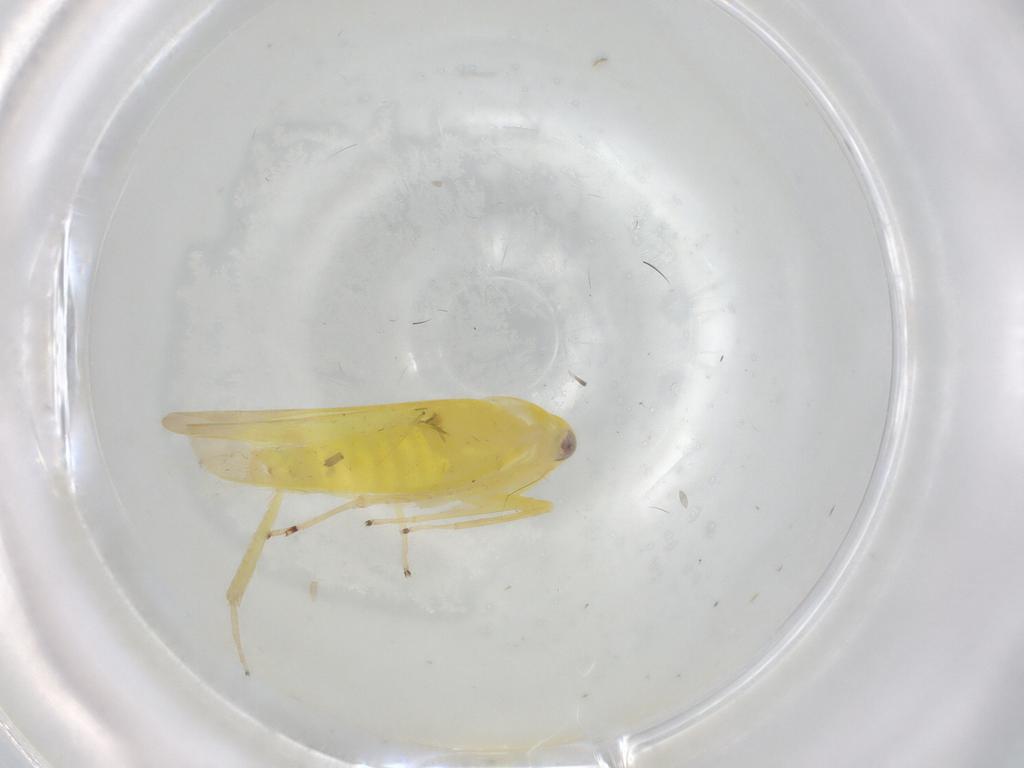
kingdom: Animalia
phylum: Arthropoda
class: Insecta
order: Hemiptera
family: Cicadellidae
